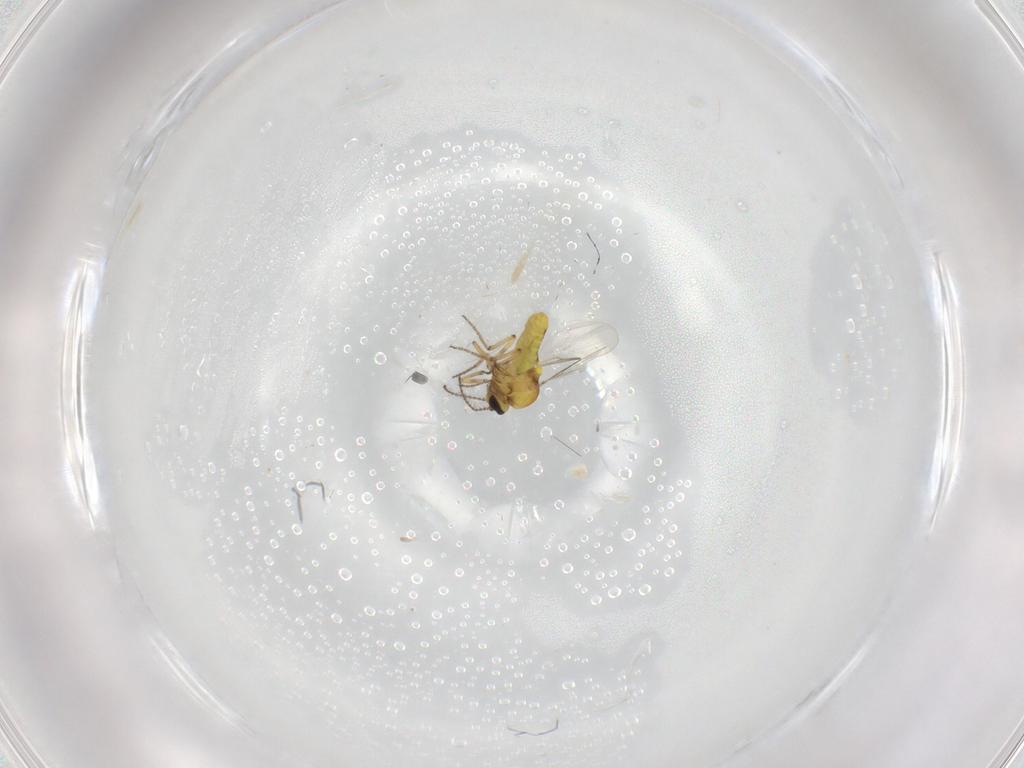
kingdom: Animalia
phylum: Arthropoda
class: Insecta
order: Diptera
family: Cecidomyiidae
